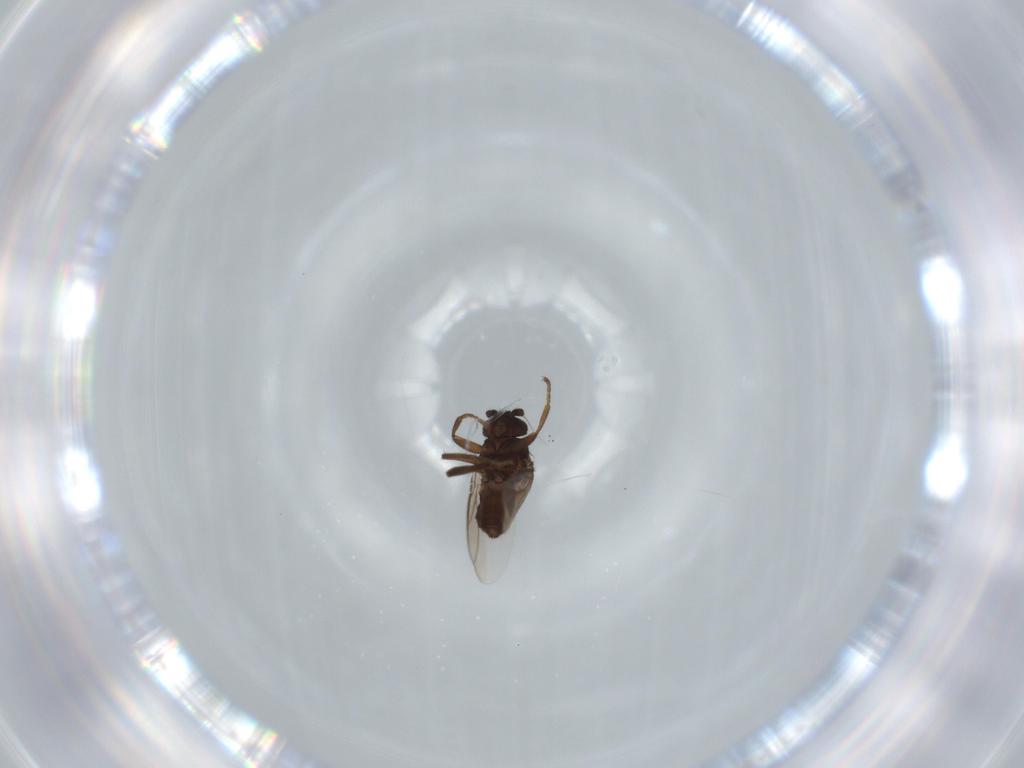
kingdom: Animalia
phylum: Arthropoda
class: Insecta
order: Diptera
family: Sphaeroceridae
